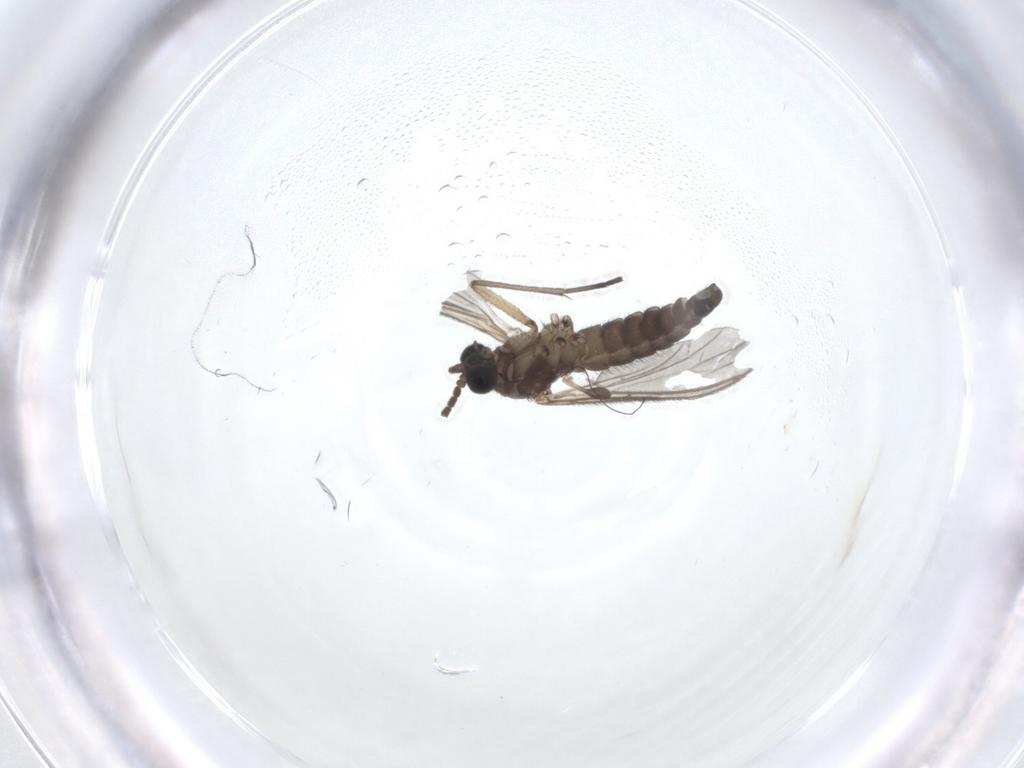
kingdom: Animalia
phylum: Arthropoda
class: Insecta
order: Diptera
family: Sciaridae
